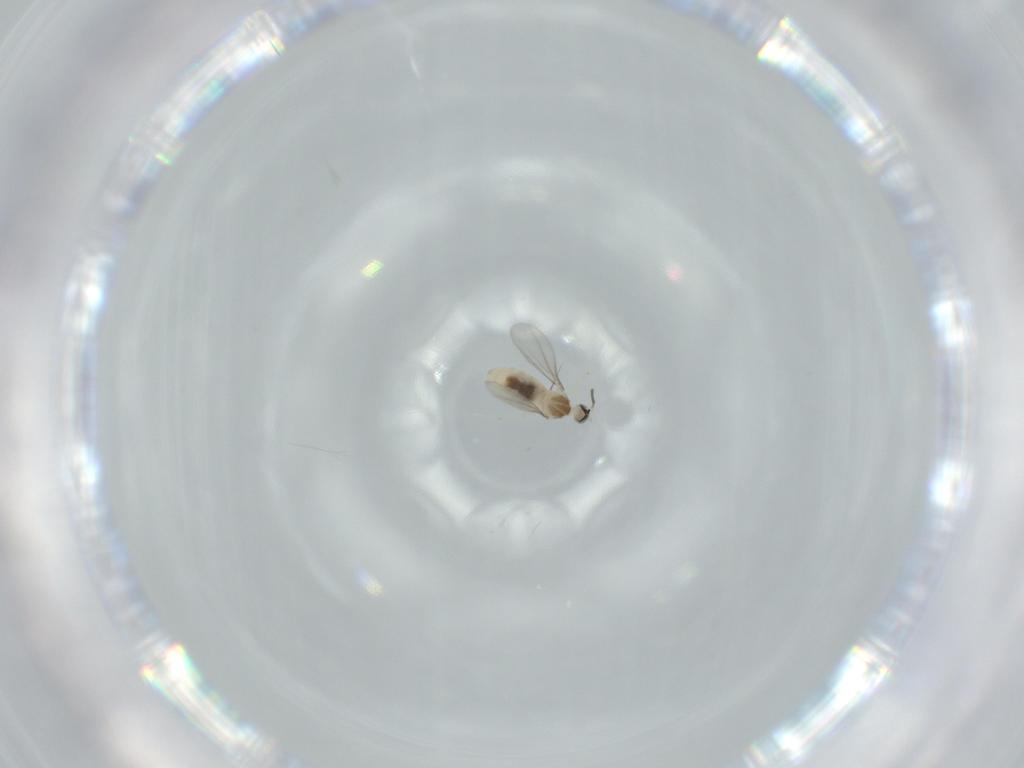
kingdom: Animalia
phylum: Arthropoda
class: Insecta
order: Diptera
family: Cecidomyiidae
